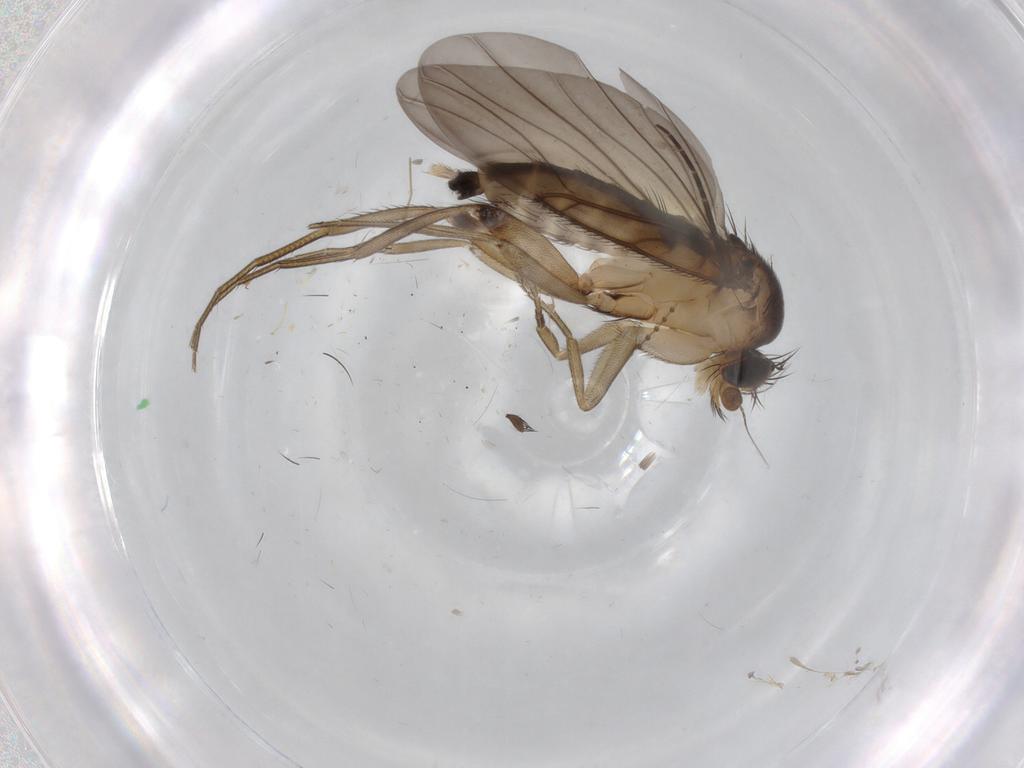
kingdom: Animalia
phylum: Arthropoda
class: Insecta
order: Diptera
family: Phoridae
